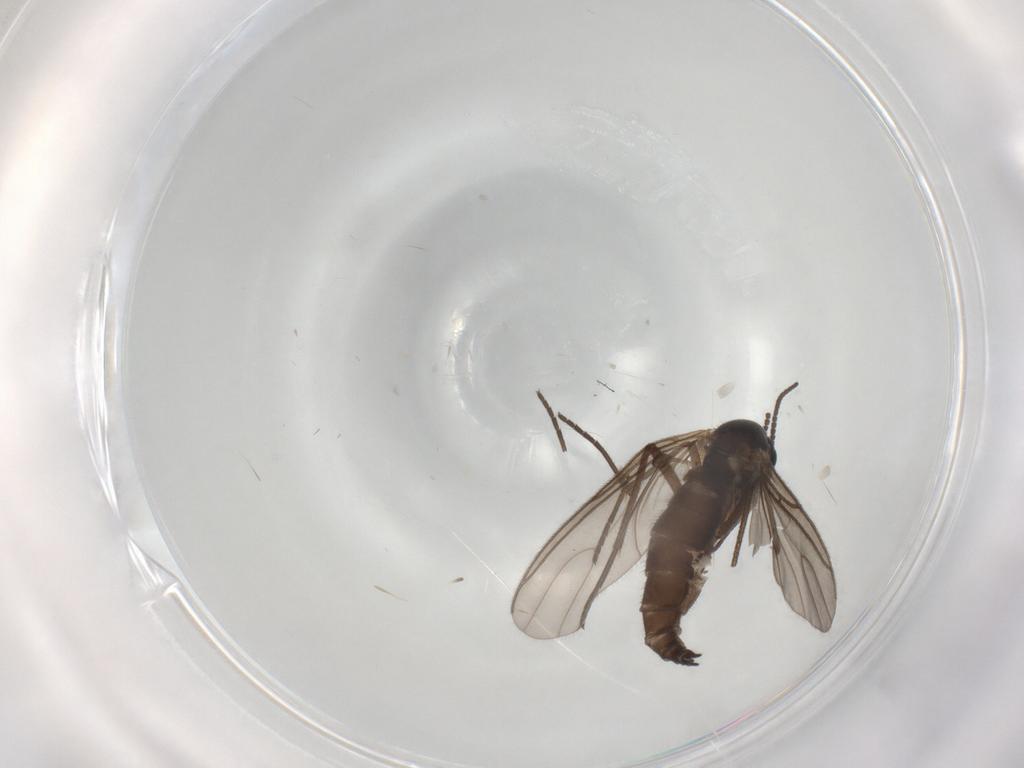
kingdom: Animalia
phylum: Arthropoda
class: Insecta
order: Diptera
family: Sciaridae
